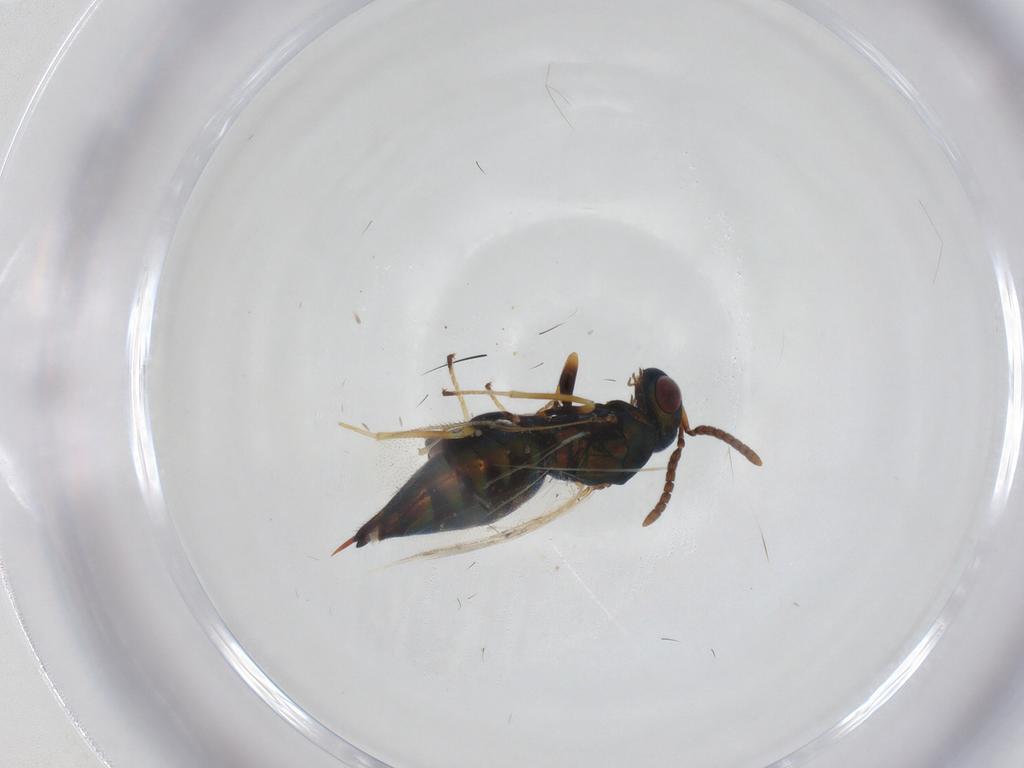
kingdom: Animalia
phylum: Arthropoda
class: Insecta
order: Hymenoptera
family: Pteromalidae
